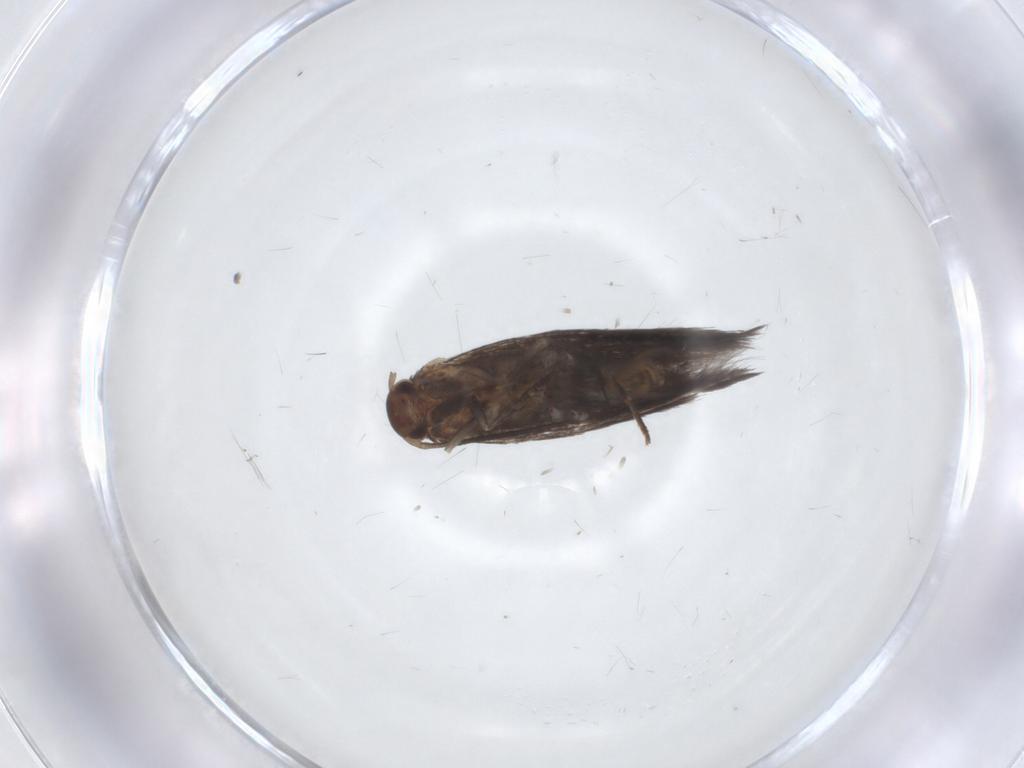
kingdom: Animalia
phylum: Arthropoda
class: Insecta
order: Lepidoptera
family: Elachistidae
